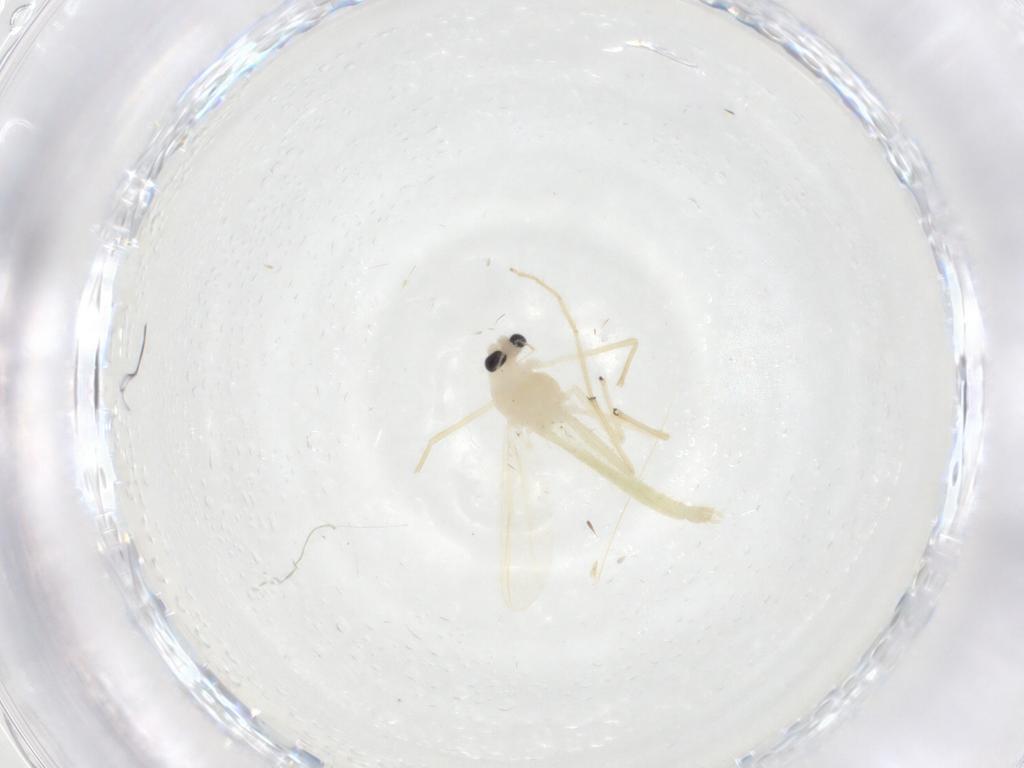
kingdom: Animalia
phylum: Arthropoda
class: Insecta
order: Diptera
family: Chironomidae
